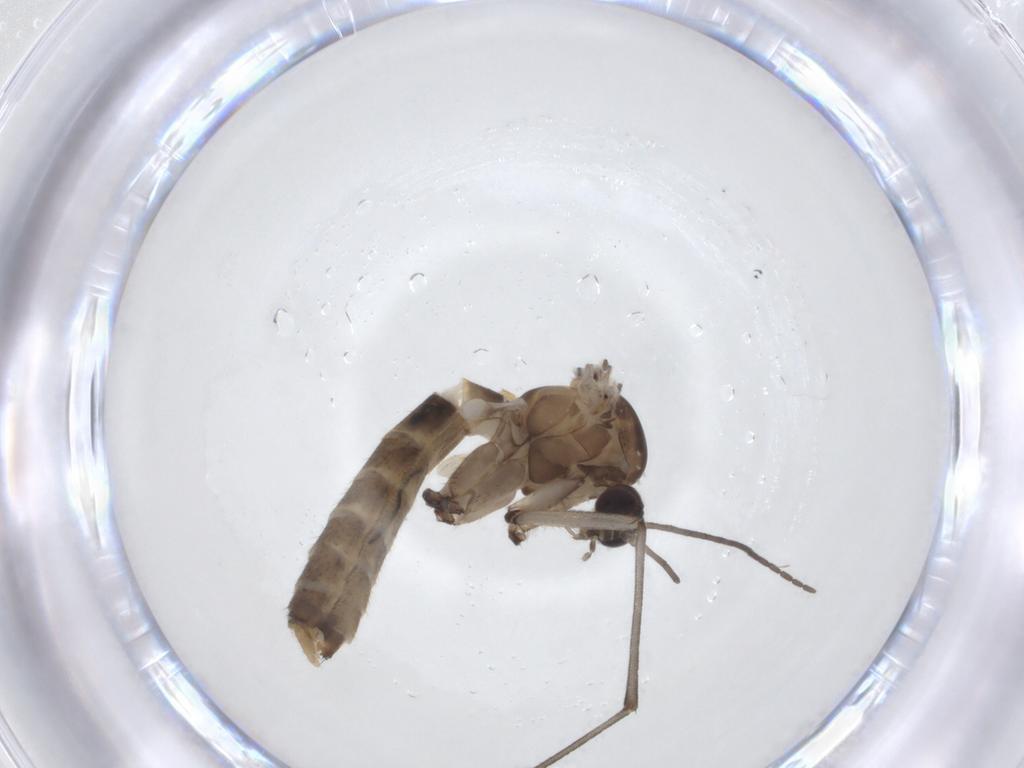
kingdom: Animalia
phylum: Arthropoda
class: Insecta
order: Diptera
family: Mycetophilidae
